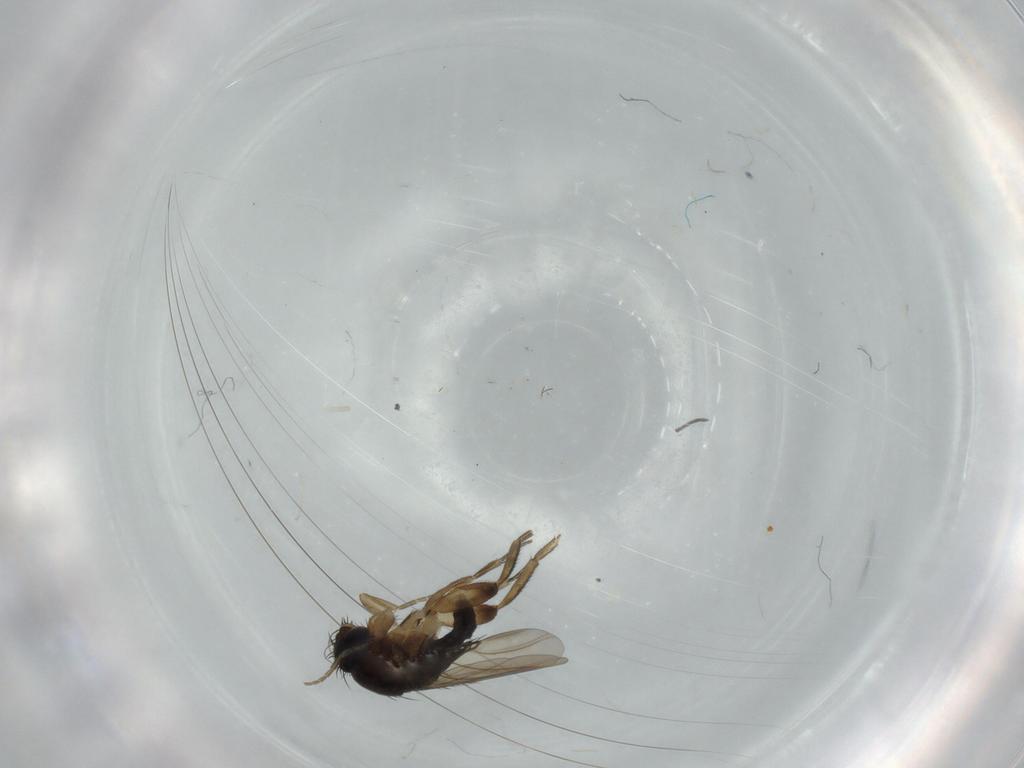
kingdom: Animalia
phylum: Arthropoda
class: Insecta
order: Diptera
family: Phoridae
